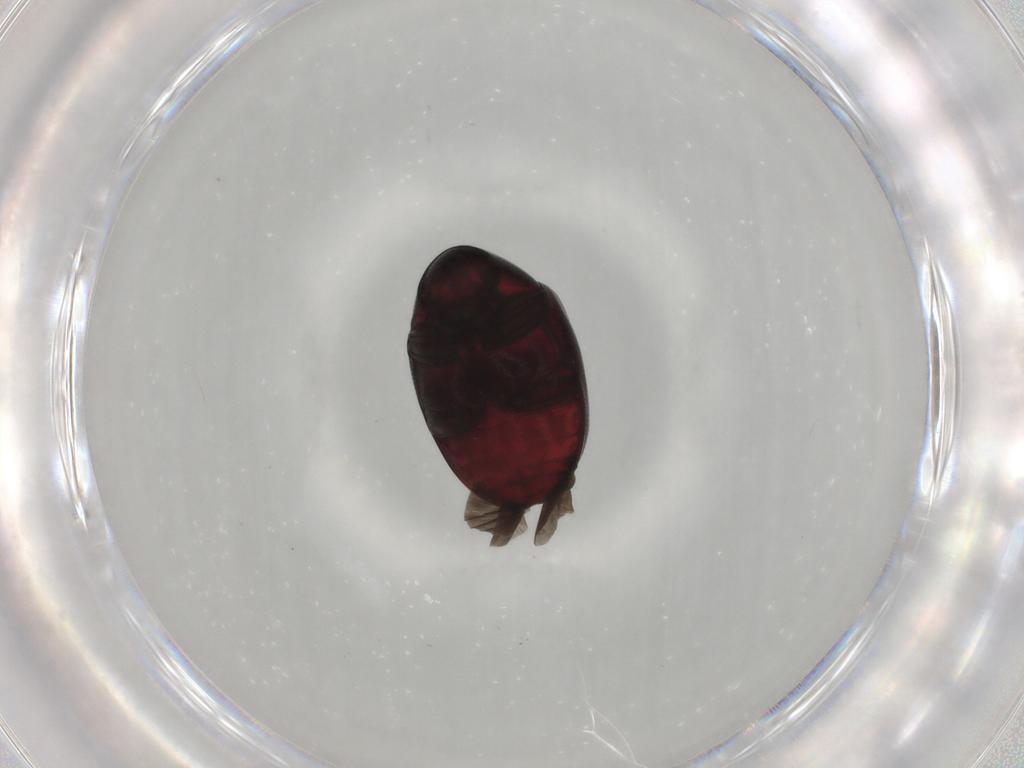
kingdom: Animalia
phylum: Arthropoda
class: Insecta
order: Coleoptera
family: Ptinidae
